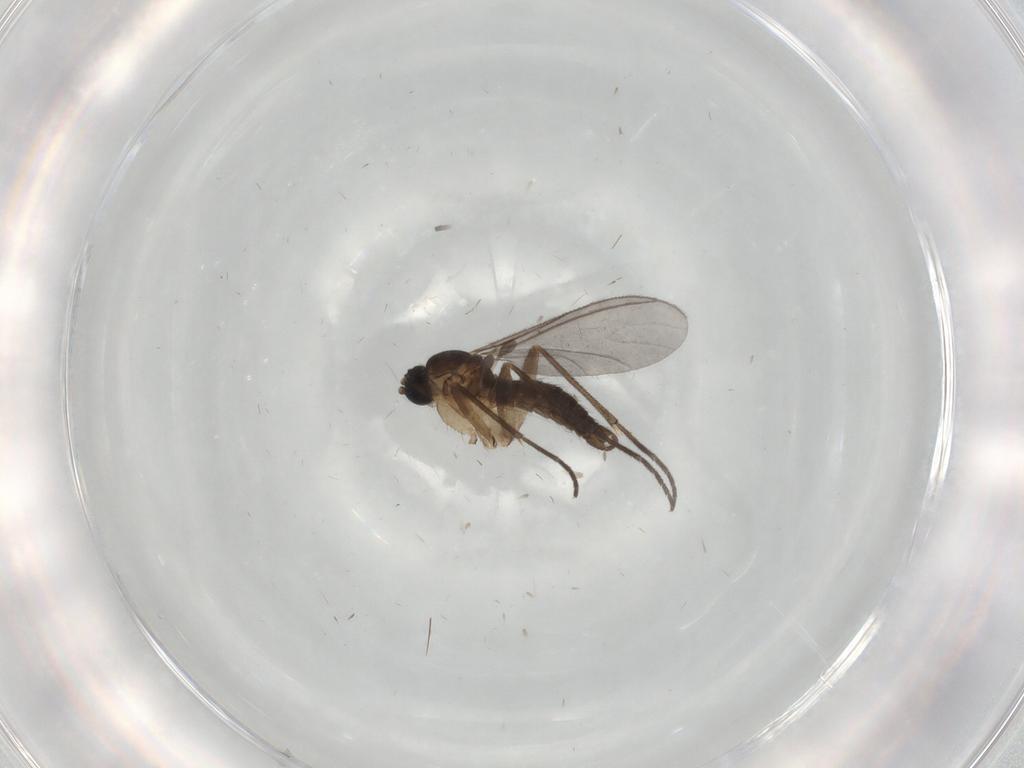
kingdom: Animalia
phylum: Arthropoda
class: Insecta
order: Diptera
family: Sciaridae
